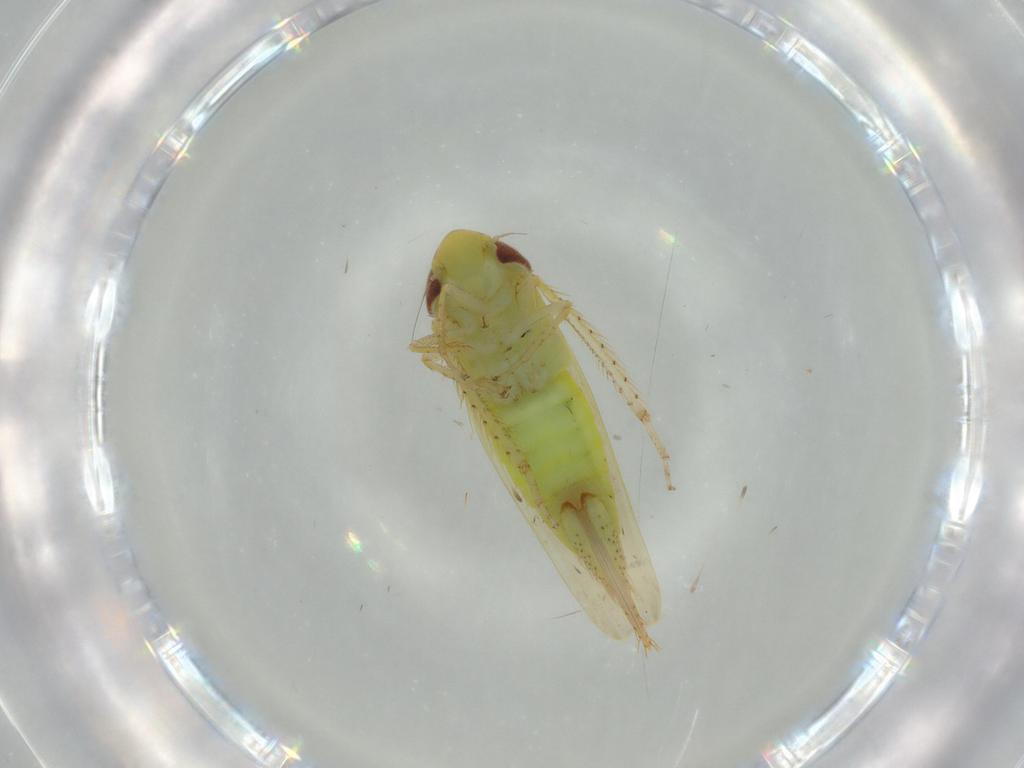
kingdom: Animalia
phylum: Arthropoda
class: Insecta
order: Hemiptera
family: Cicadellidae
